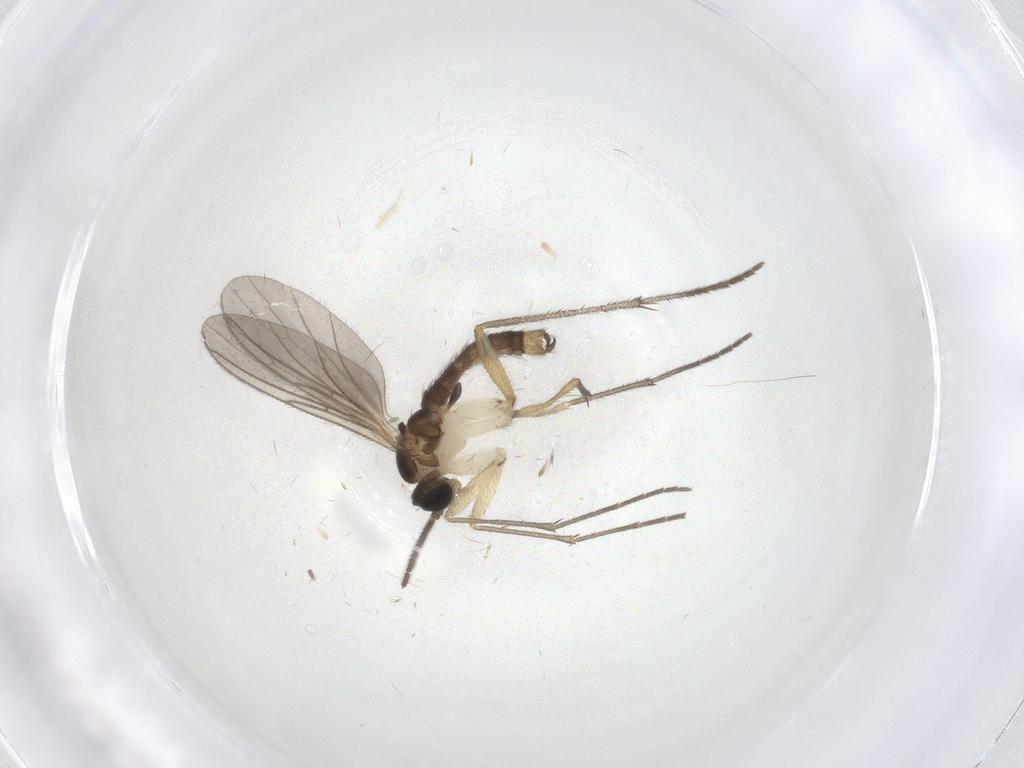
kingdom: Animalia
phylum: Arthropoda
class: Insecta
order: Diptera
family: Sciaridae
